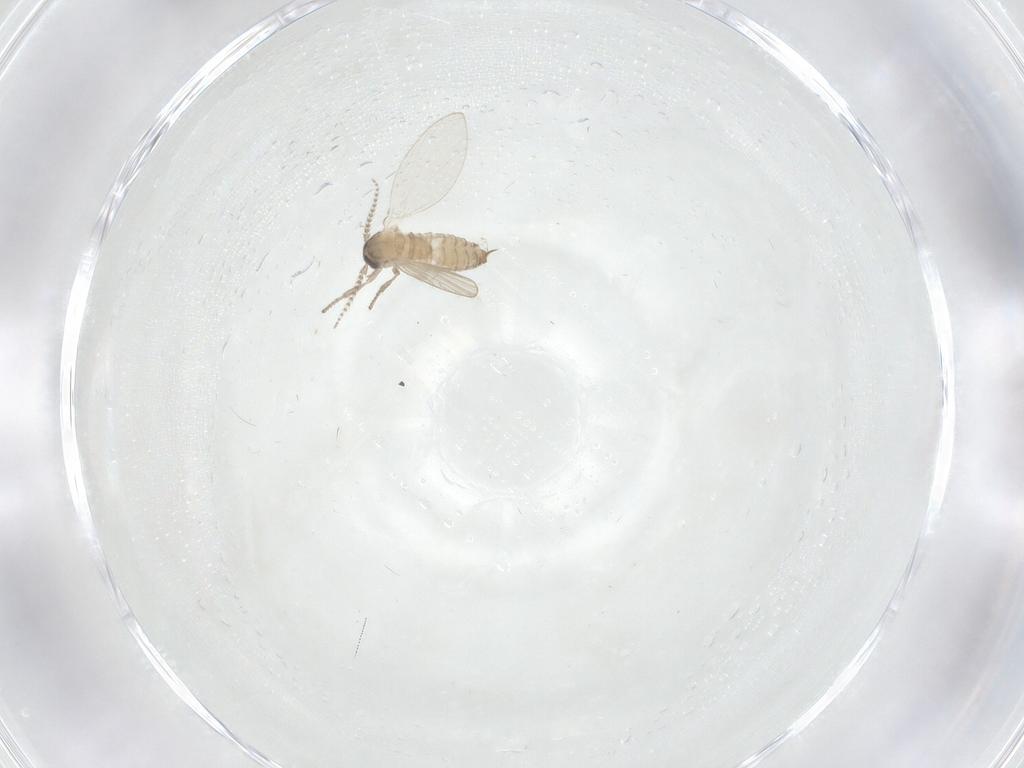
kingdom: Animalia
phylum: Arthropoda
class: Insecta
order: Diptera
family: Psychodidae
